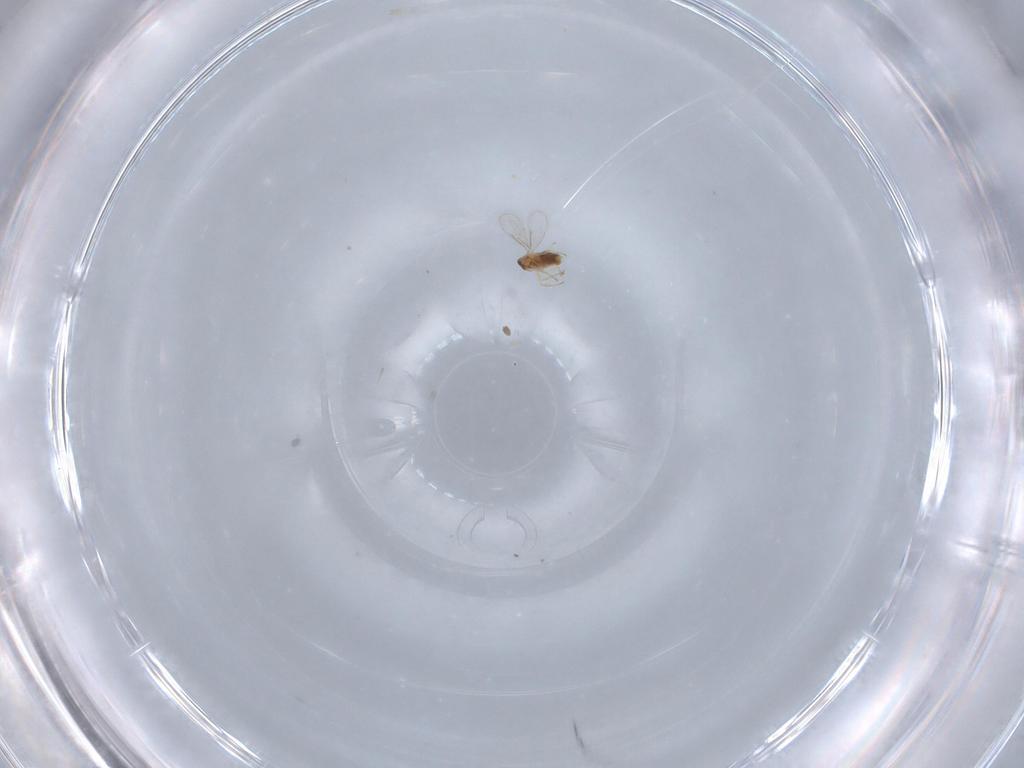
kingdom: Animalia
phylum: Arthropoda
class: Insecta
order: Hymenoptera
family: Aphelinidae
